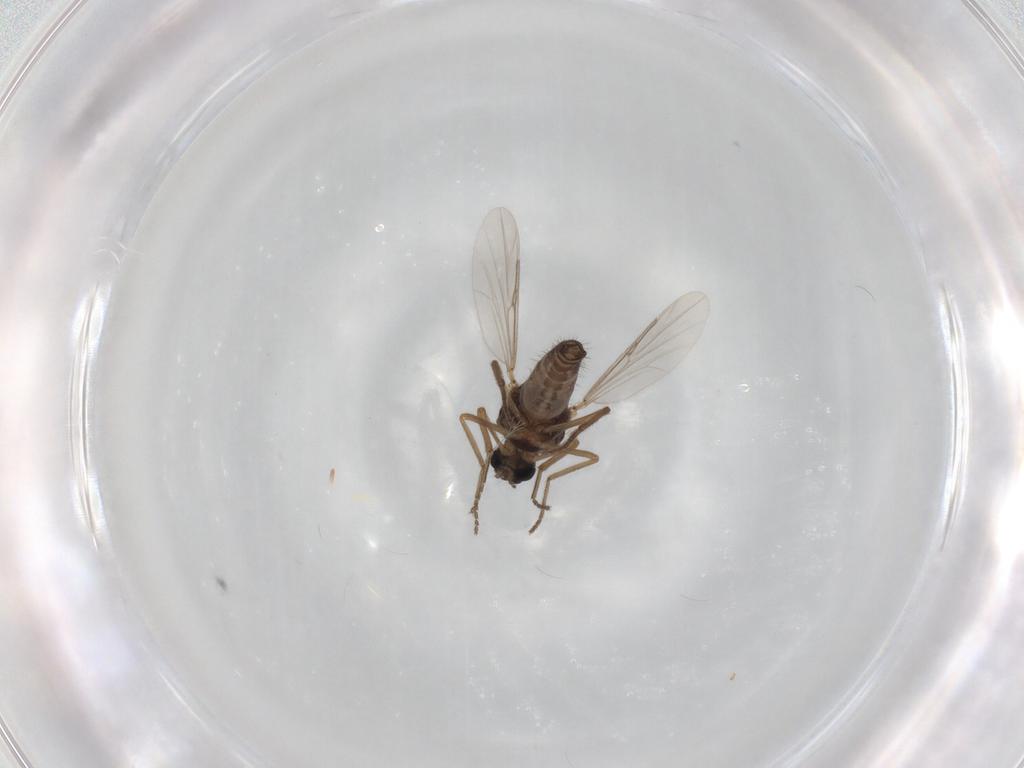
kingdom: Animalia
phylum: Arthropoda
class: Insecta
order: Diptera
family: Ceratopogonidae
